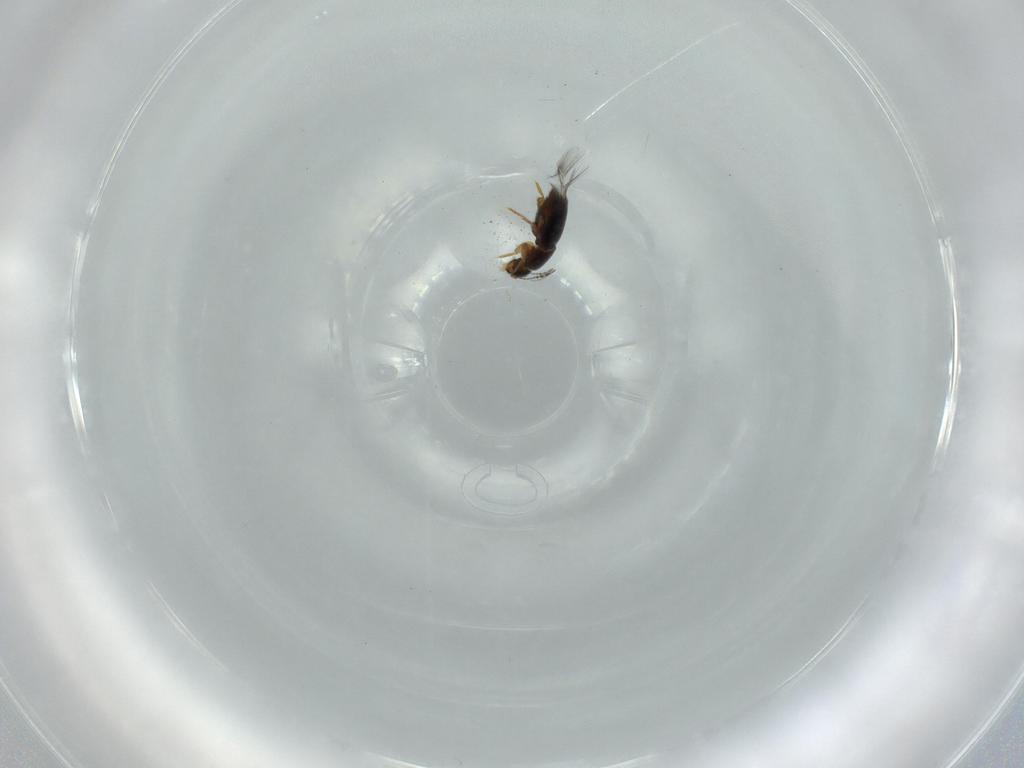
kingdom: Animalia
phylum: Arthropoda
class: Insecta
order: Coleoptera
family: Ptiliidae
